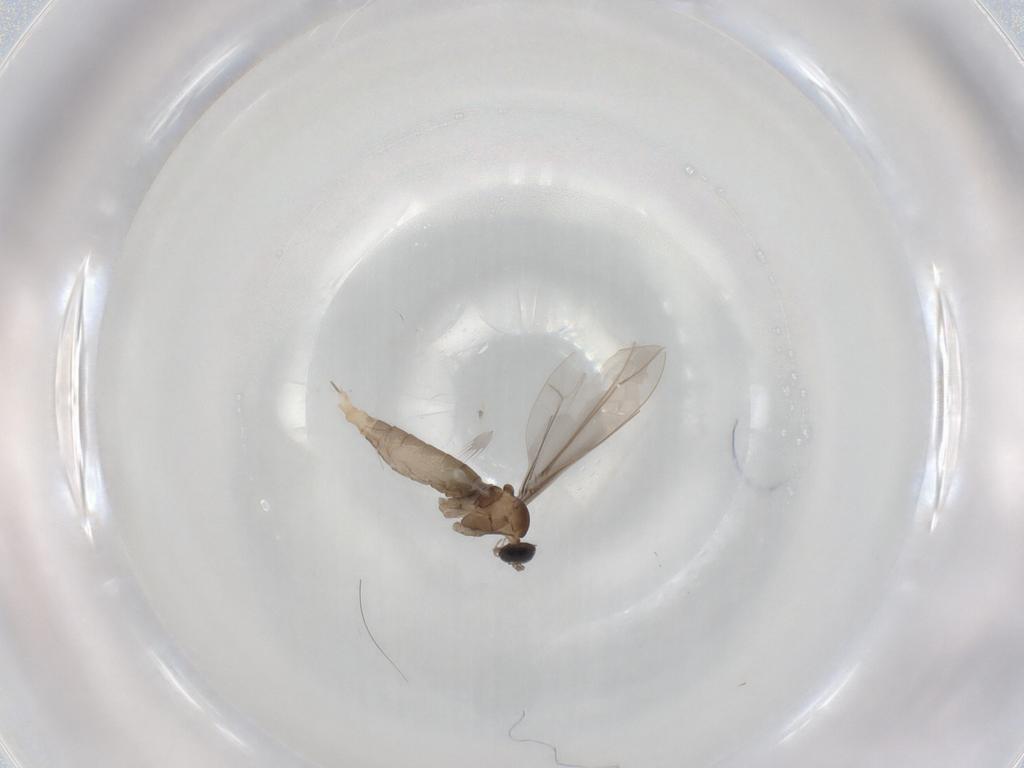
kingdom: Animalia
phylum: Arthropoda
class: Insecta
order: Diptera
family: Cecidomyiidae
